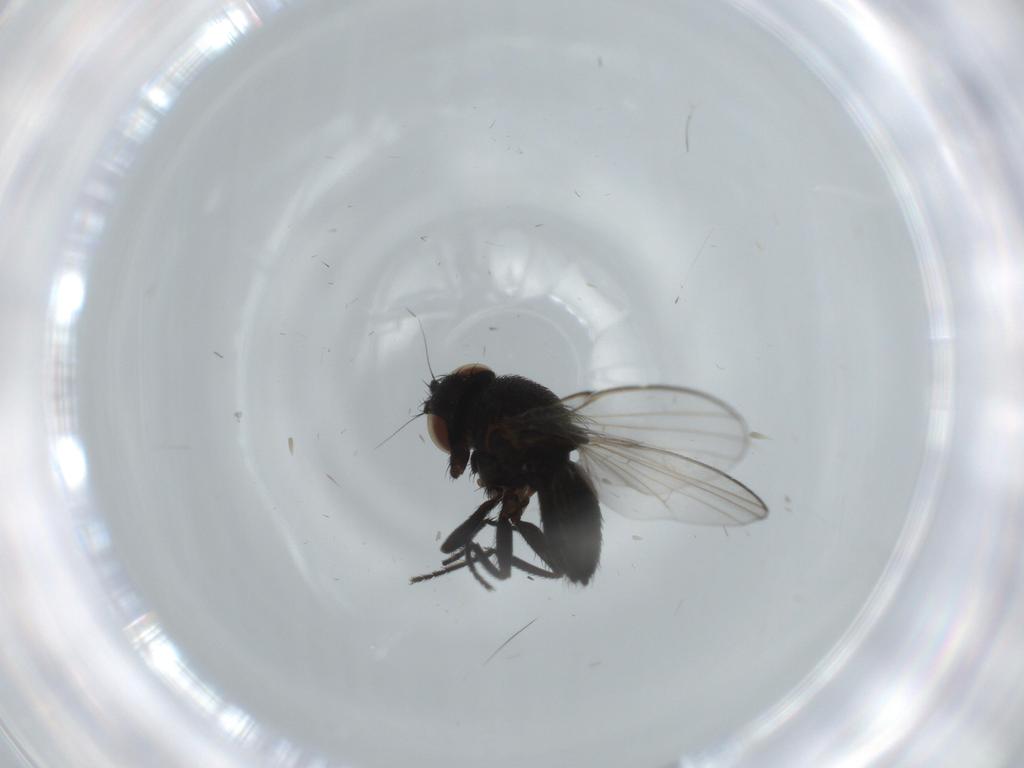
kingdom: Animalia
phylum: Arthropoda
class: Insecta
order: Diptera
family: Sciaridae
